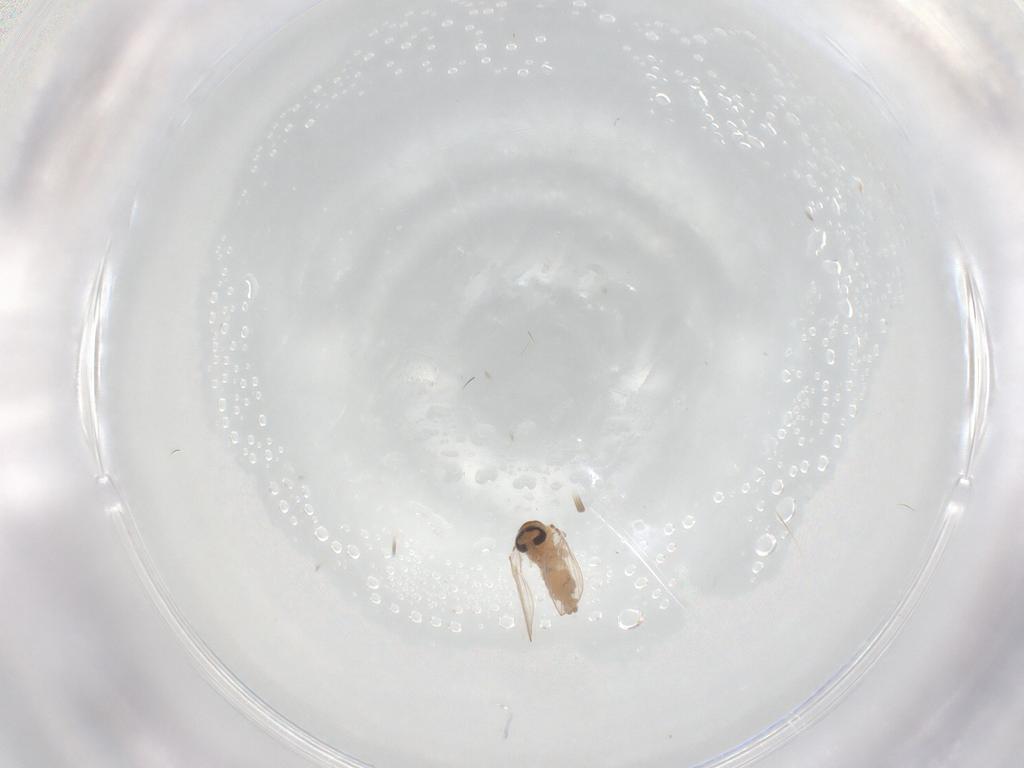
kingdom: Animalia
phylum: Arthropoda
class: Insecta
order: Diptera
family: Psychodidae
